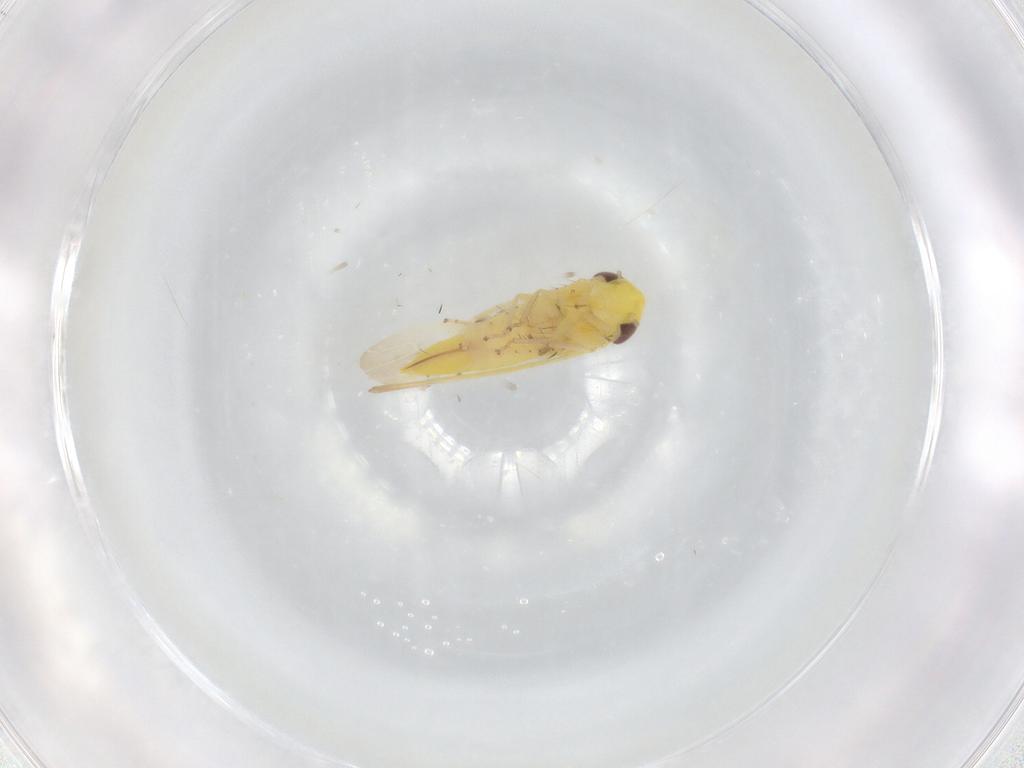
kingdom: Animalia
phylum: Arthropoda
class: Insecta
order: Hemiptera
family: Cicadellidae
